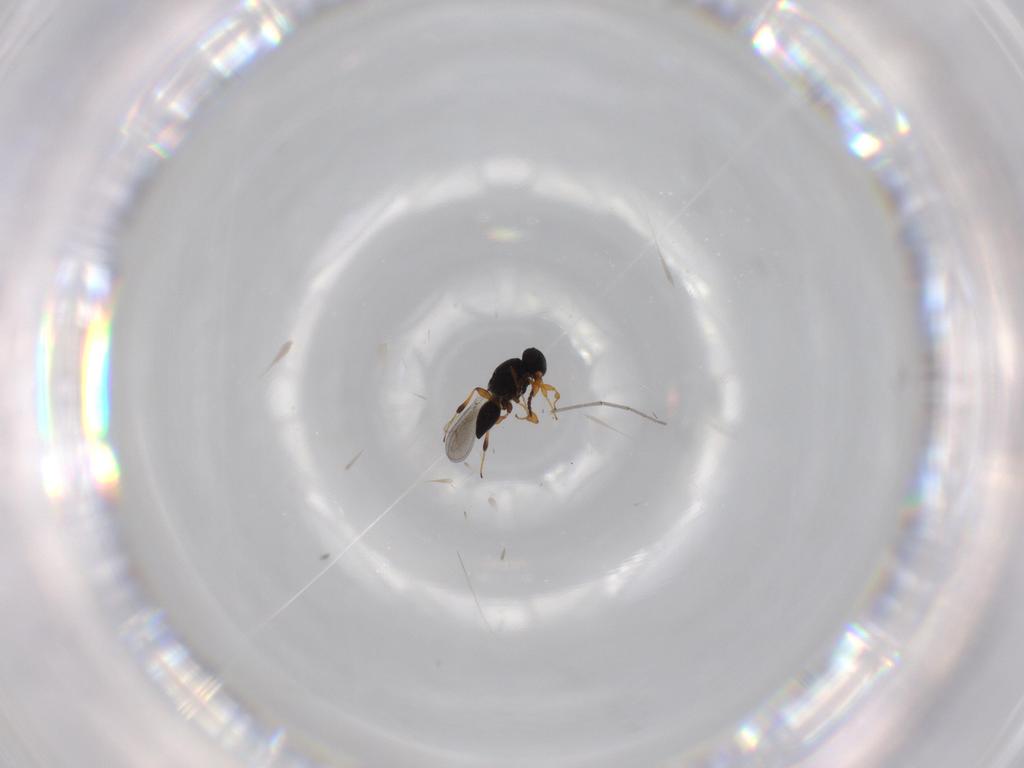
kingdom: Animalia
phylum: Arthropoda
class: Insecta
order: Hymenoptera
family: Platygastridae
